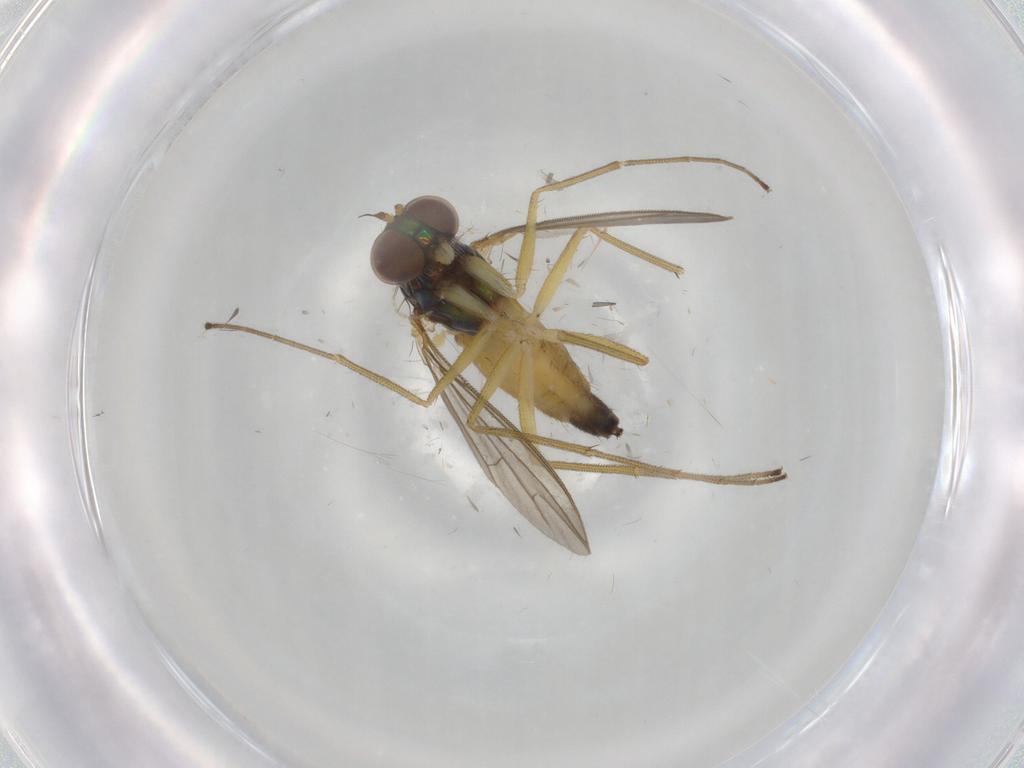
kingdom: Animalia
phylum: Arthropoda
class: Insecta
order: Diptera
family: Dolichopodidae
